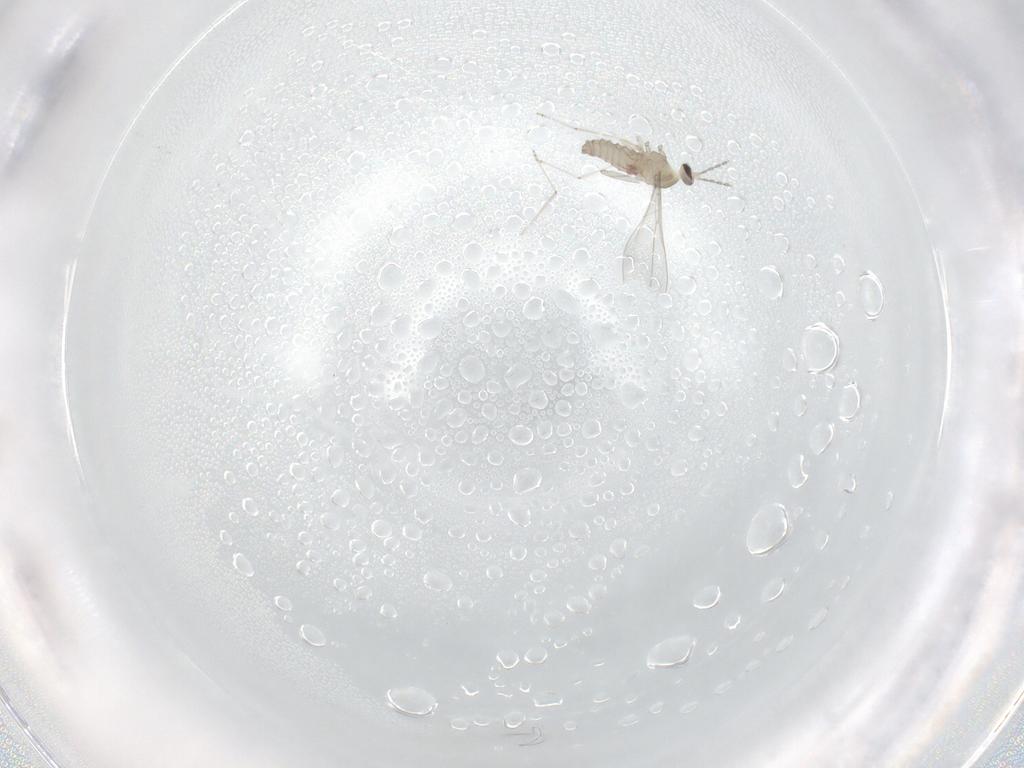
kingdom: Animalia
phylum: Arthropoda
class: Insecta
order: Diptera
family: Cecidomyiidae
